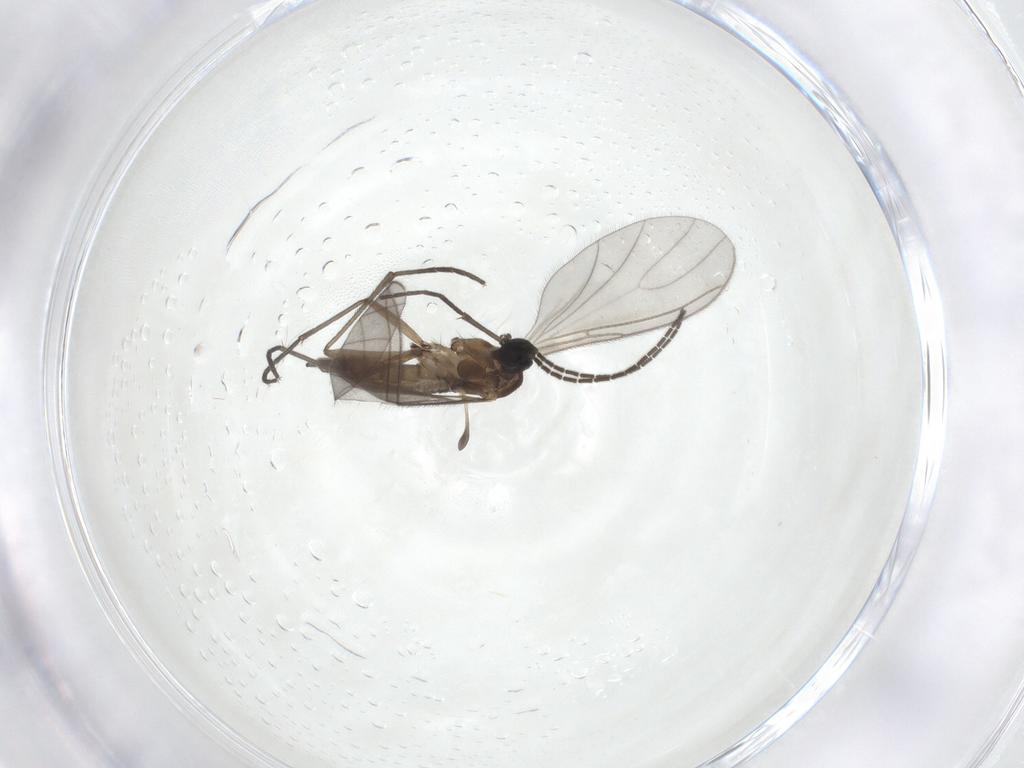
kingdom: Animalia
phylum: Arthropoda
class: Insecta
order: Diptera
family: Sciaridae
